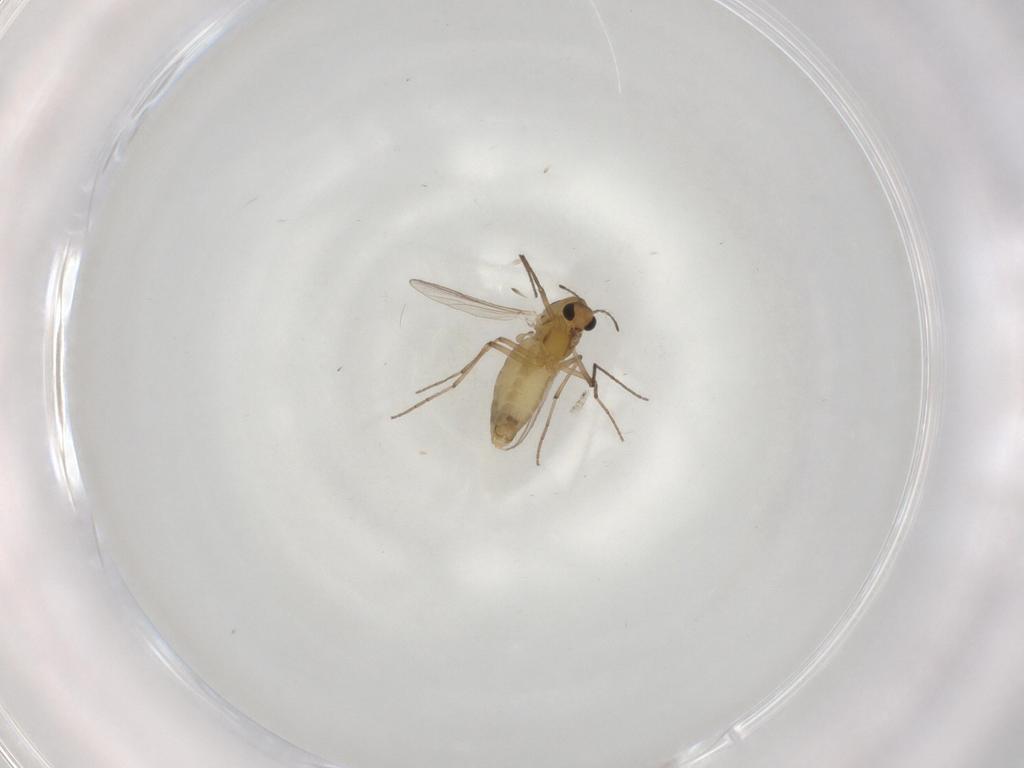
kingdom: Animalia
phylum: Arthropoda
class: Insecta
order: Diptera
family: Chironomidae
